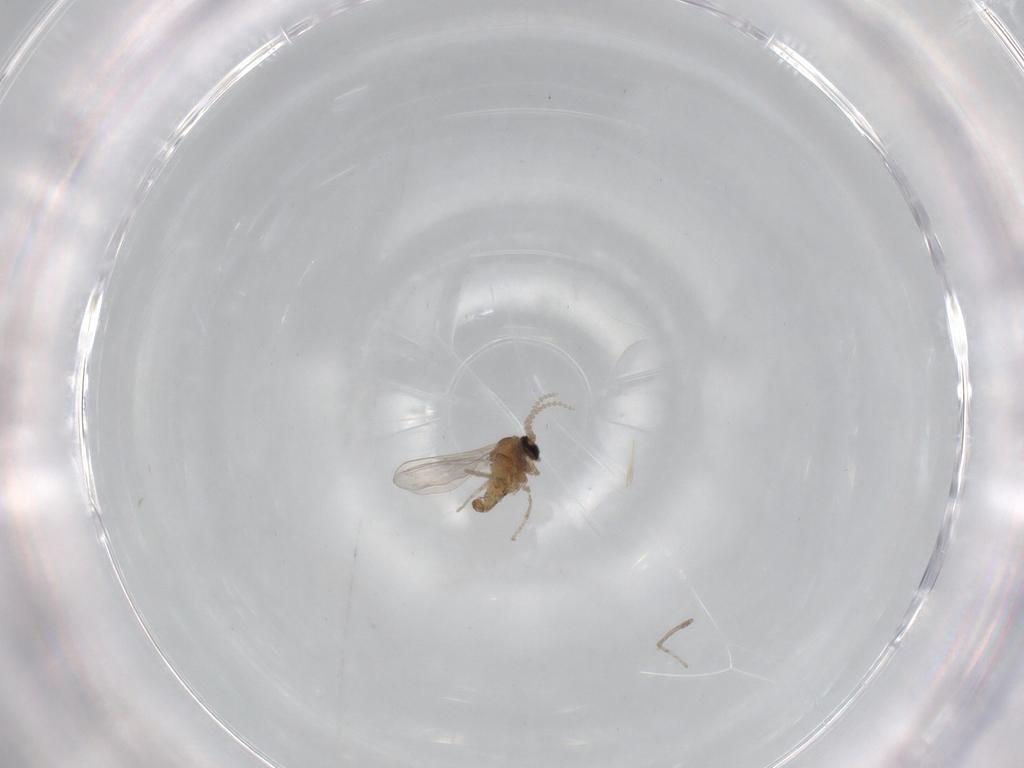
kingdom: Animalia
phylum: Arthropoda
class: Insecta
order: Diptera
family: Cecidomyiidae
